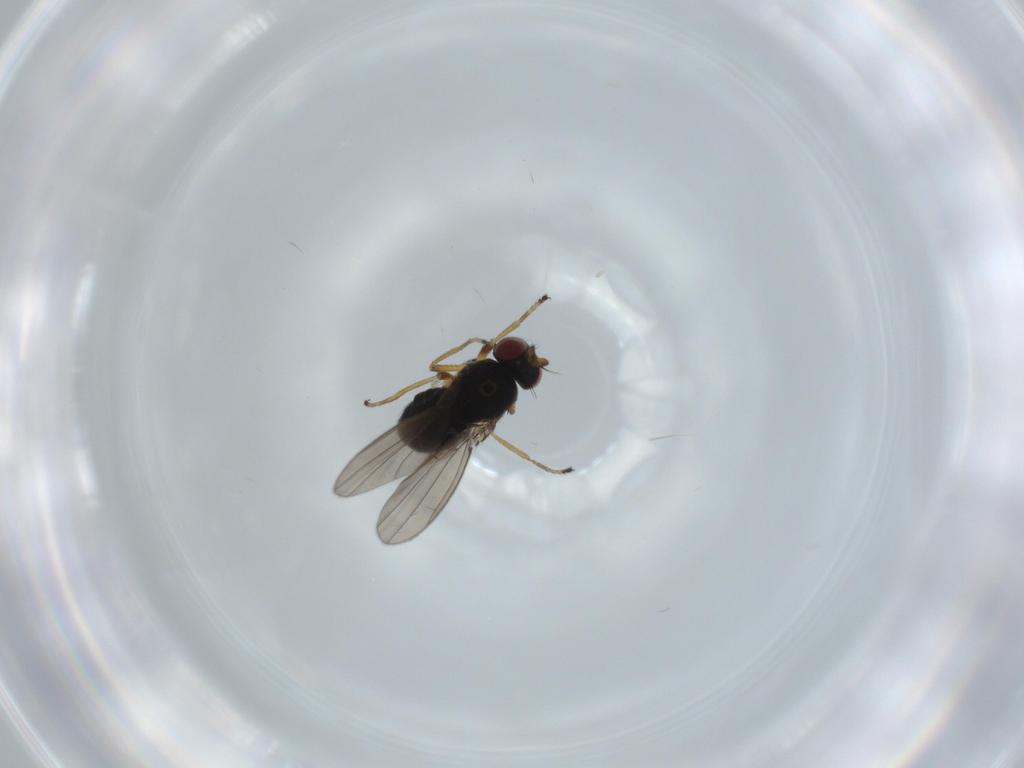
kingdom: Animalia
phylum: Arthropoda
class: Insecta
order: Diptera
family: Ephydridae
